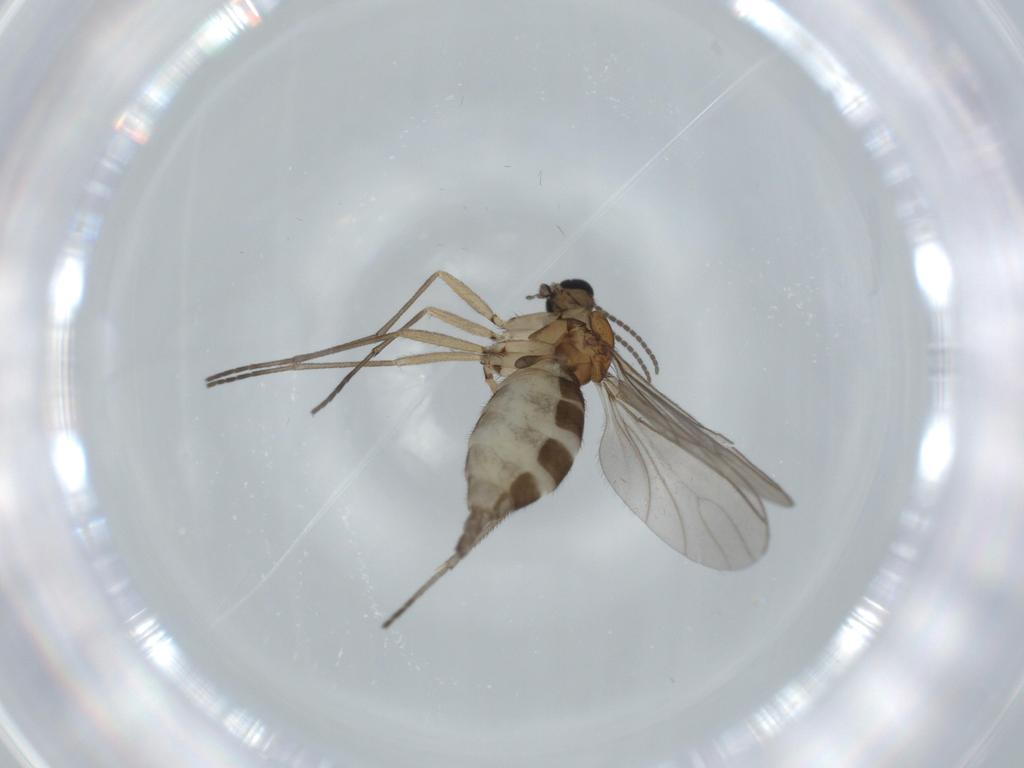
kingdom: Animalia
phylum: Arthropoda
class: Insecta
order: Diptera
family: Sciaridae
